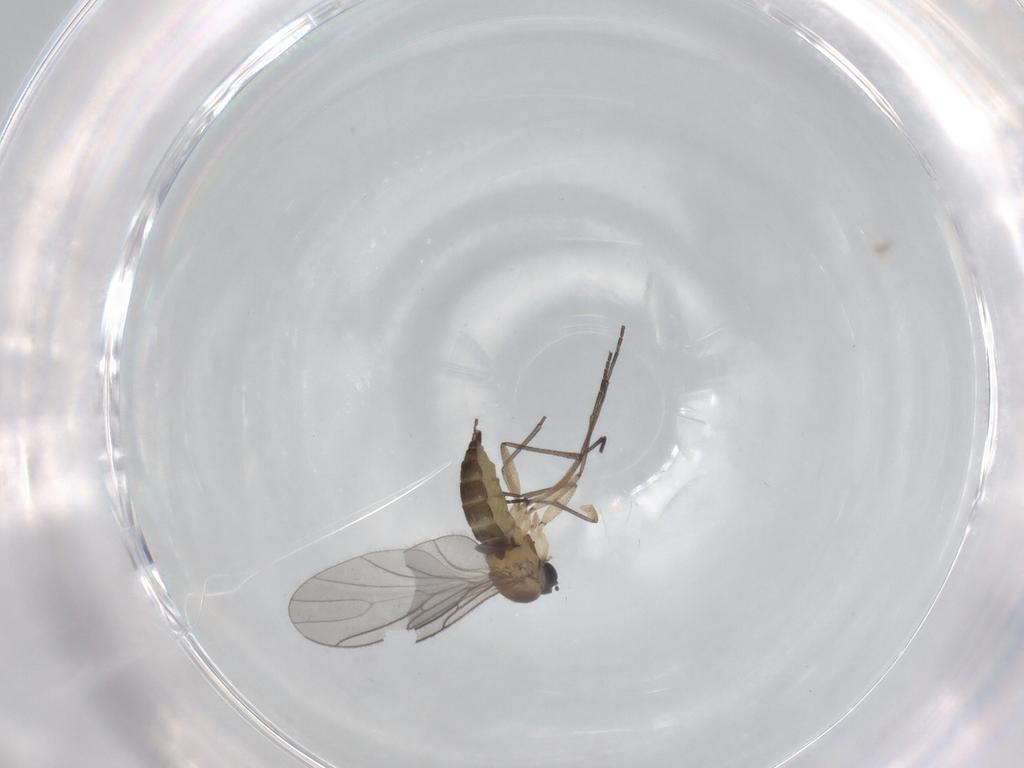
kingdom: Animalia
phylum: Arthropoda
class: Insecta
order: Diptera
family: Sciaridae
